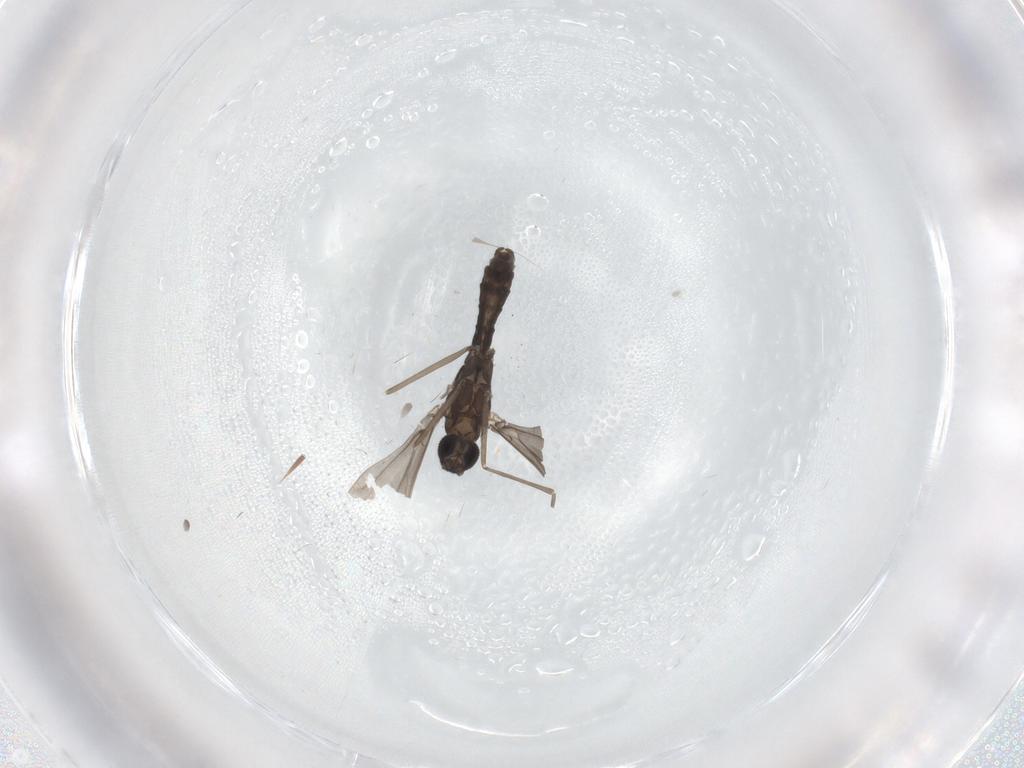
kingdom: Animalia
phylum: Arthropoda
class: Insecta
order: Diptera
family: Cecidomyiidae
